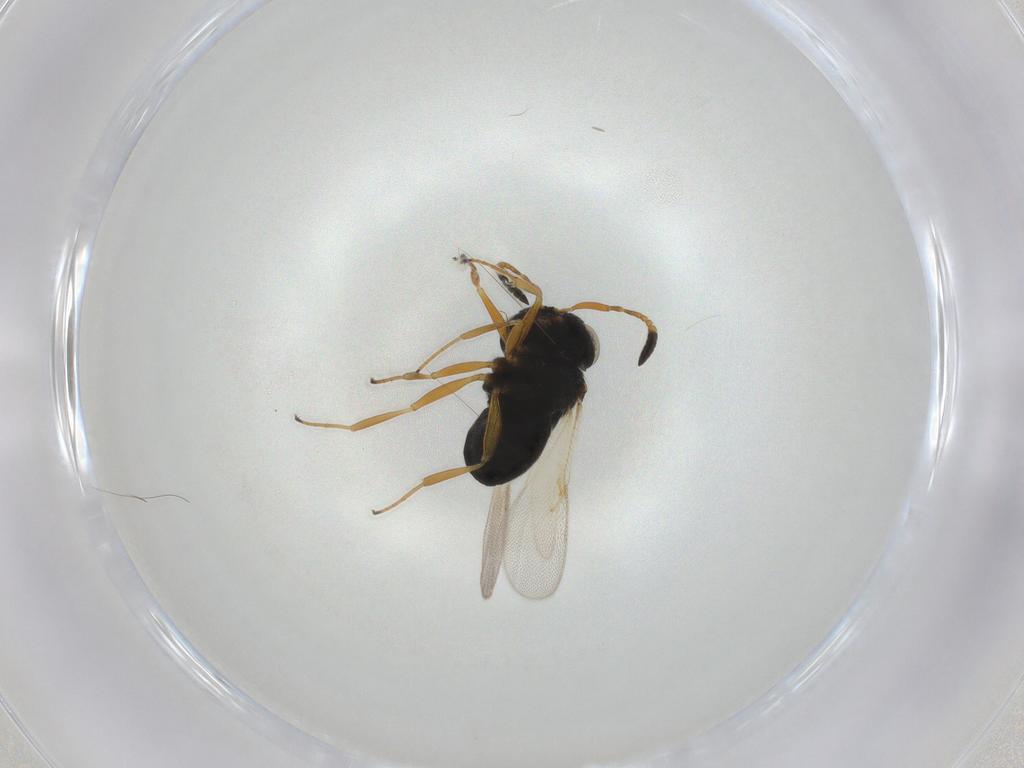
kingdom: Animalia
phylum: Arthropoda
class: Insecta
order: Hymenoptera
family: Scelionidae
